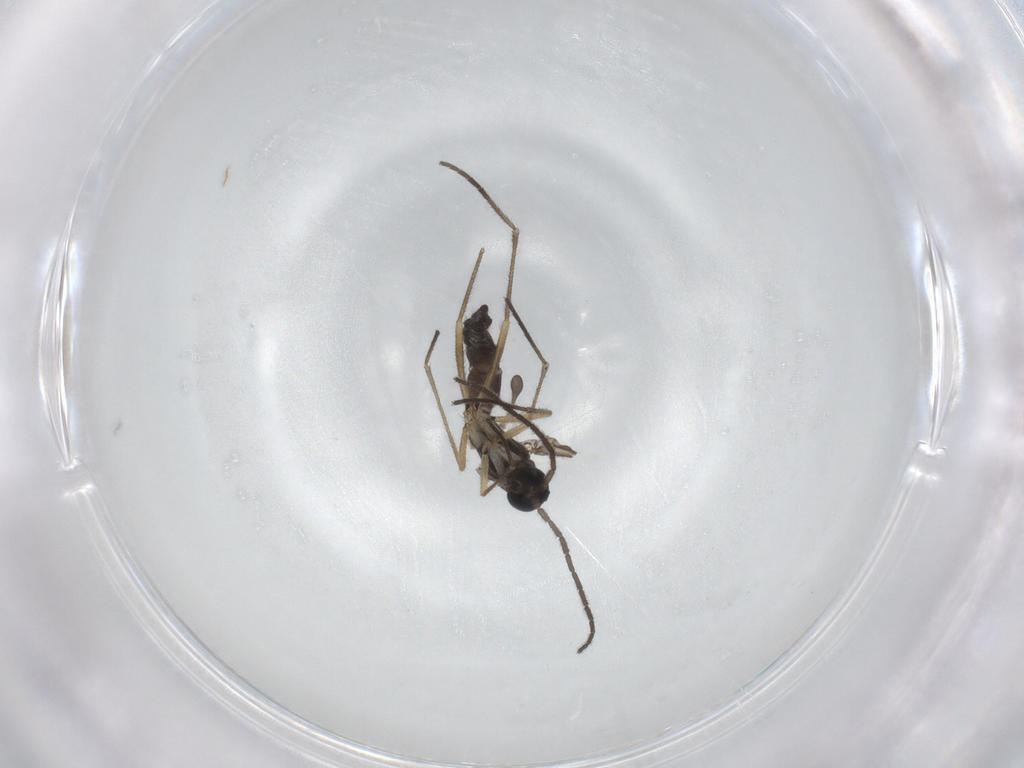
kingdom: Animalia
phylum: Arthropoda
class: Insecta
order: Diptera
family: Sciaridae
